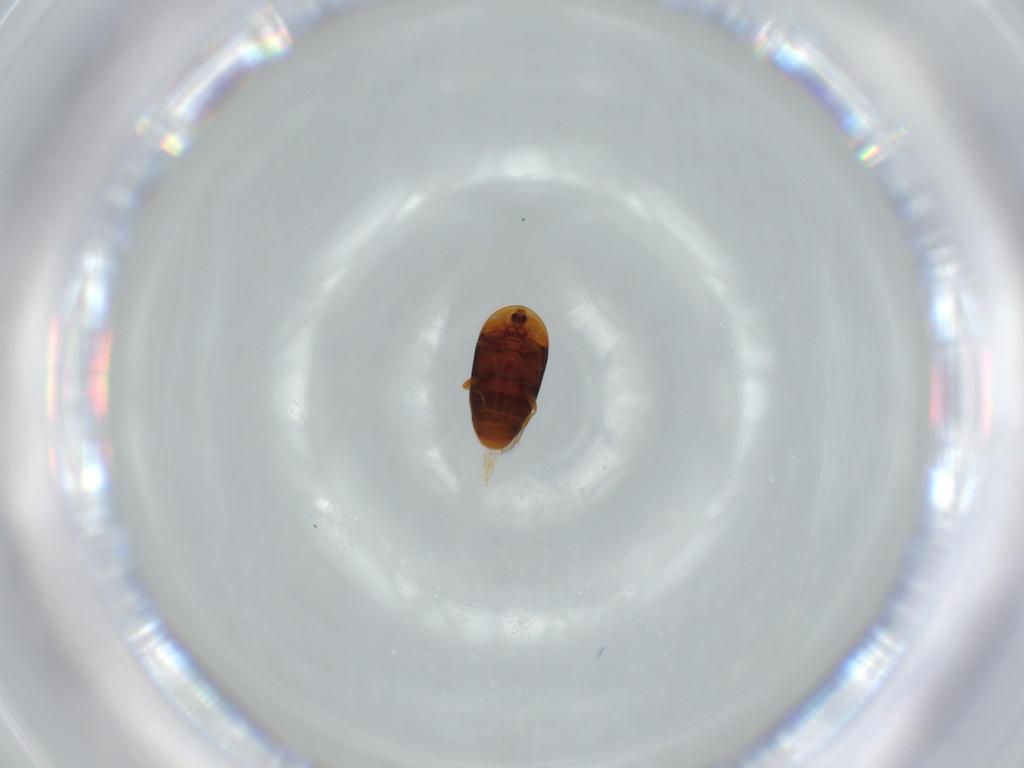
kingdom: Animalia
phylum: Arthropoda
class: Insecta
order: Coleoptera
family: Corylophidae
